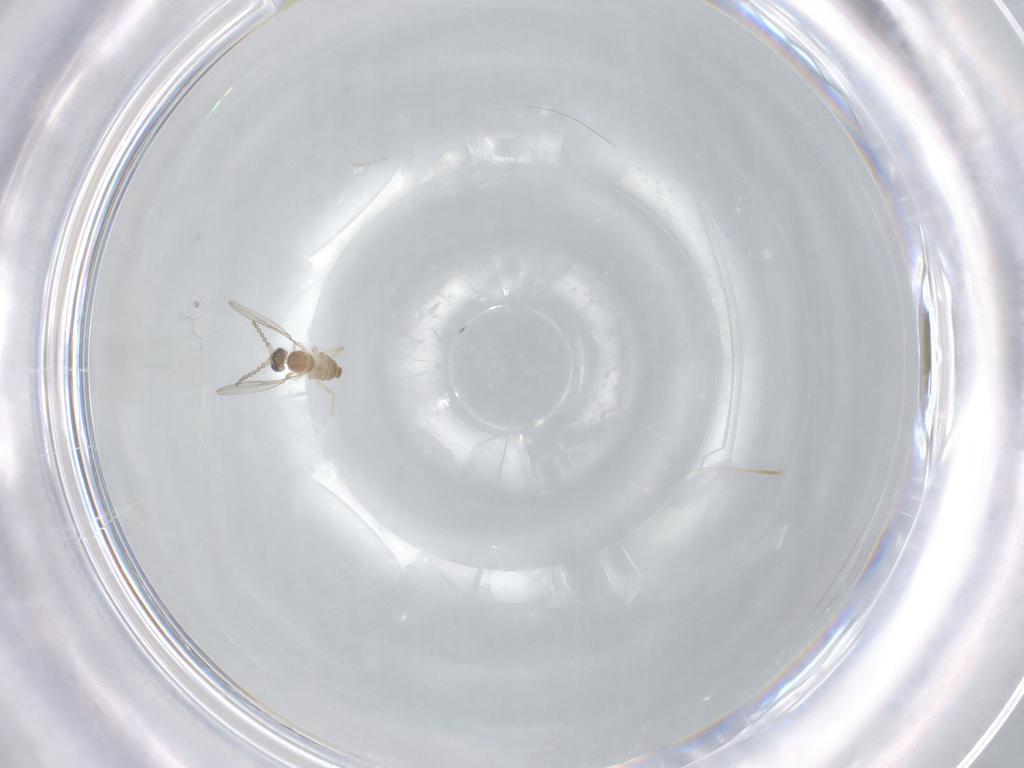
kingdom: Animalia
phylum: Arthropoda
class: Insecta
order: Diptera
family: Cecidomyiidae
